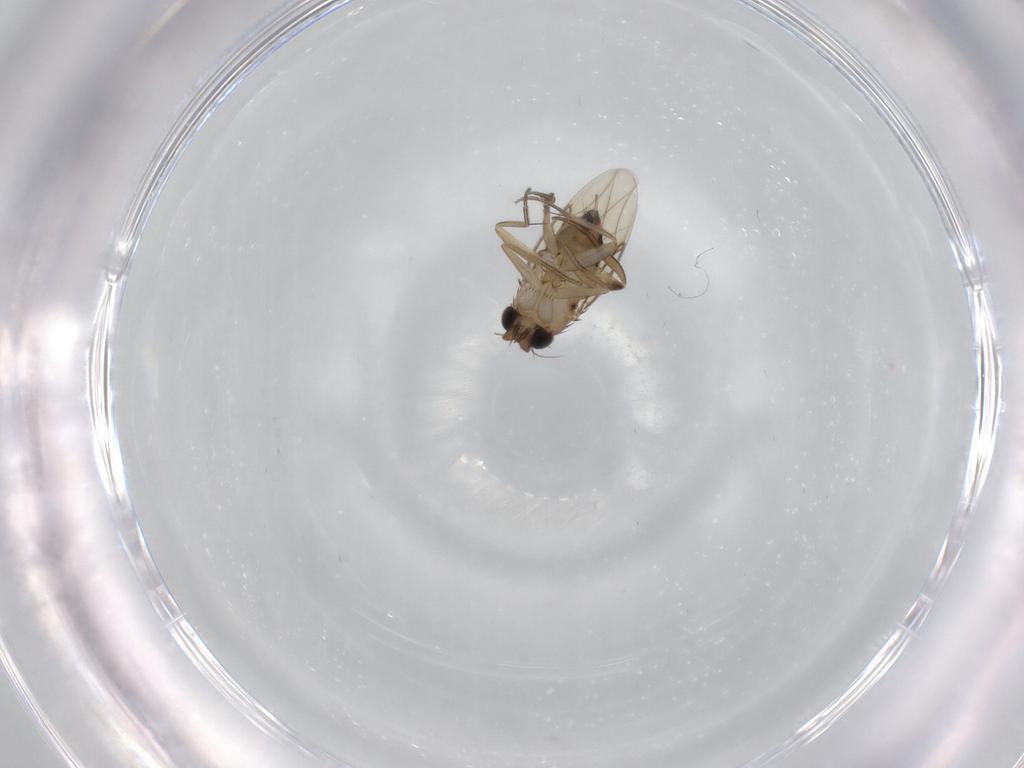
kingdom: Animalia
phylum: Arthropoda
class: Insecta
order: Diptera
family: Phoridae
